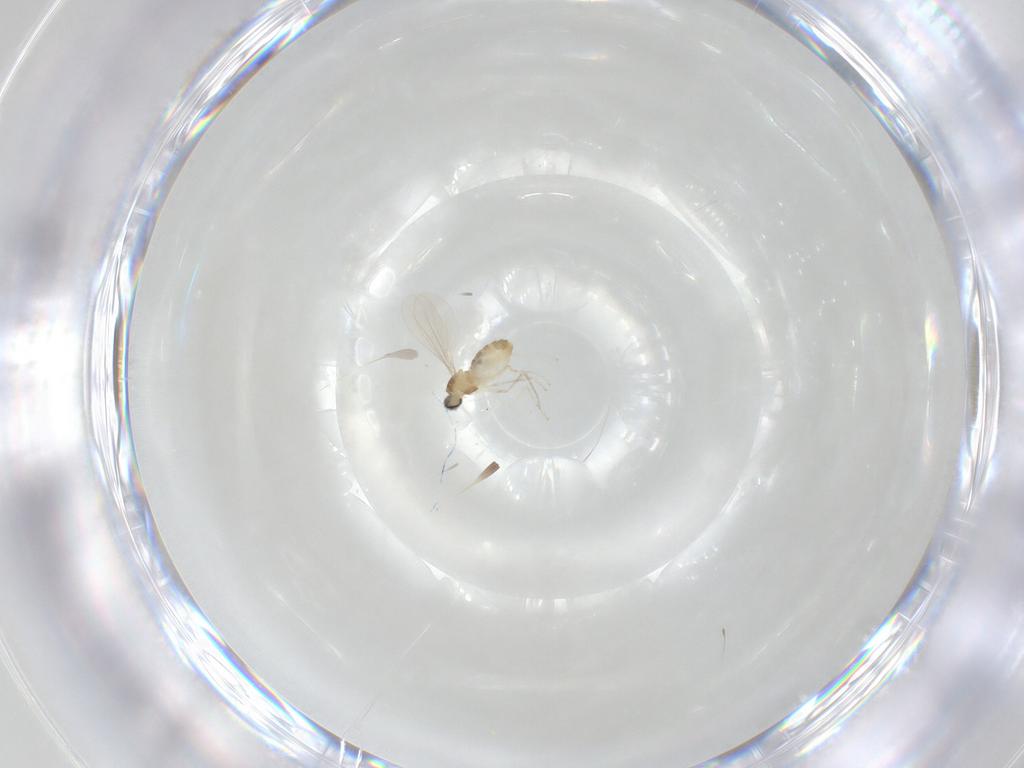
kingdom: Animalia
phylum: Arthropoda
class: Insecta
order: Diptera
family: Cecidomyiidae
